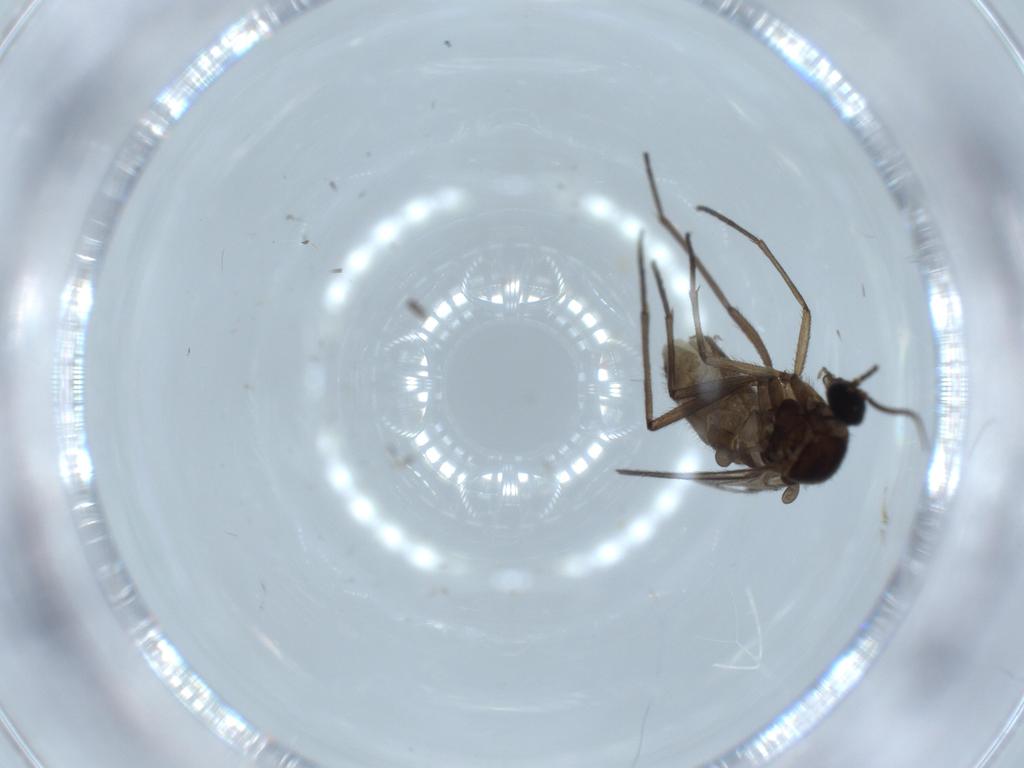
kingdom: Animalia
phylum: Arthropoda
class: Insecta
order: Diptera
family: Sciaridae
